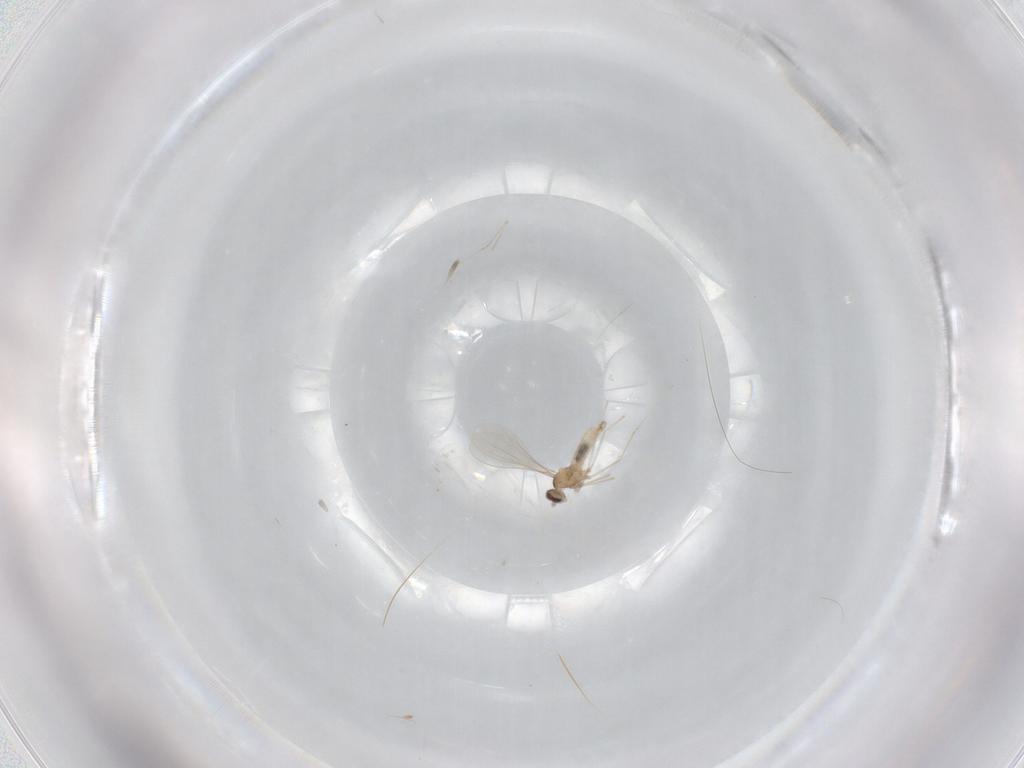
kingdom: Animalia
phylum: Arthropoda
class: Insecta
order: Diptera
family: Cecidomyiidae
